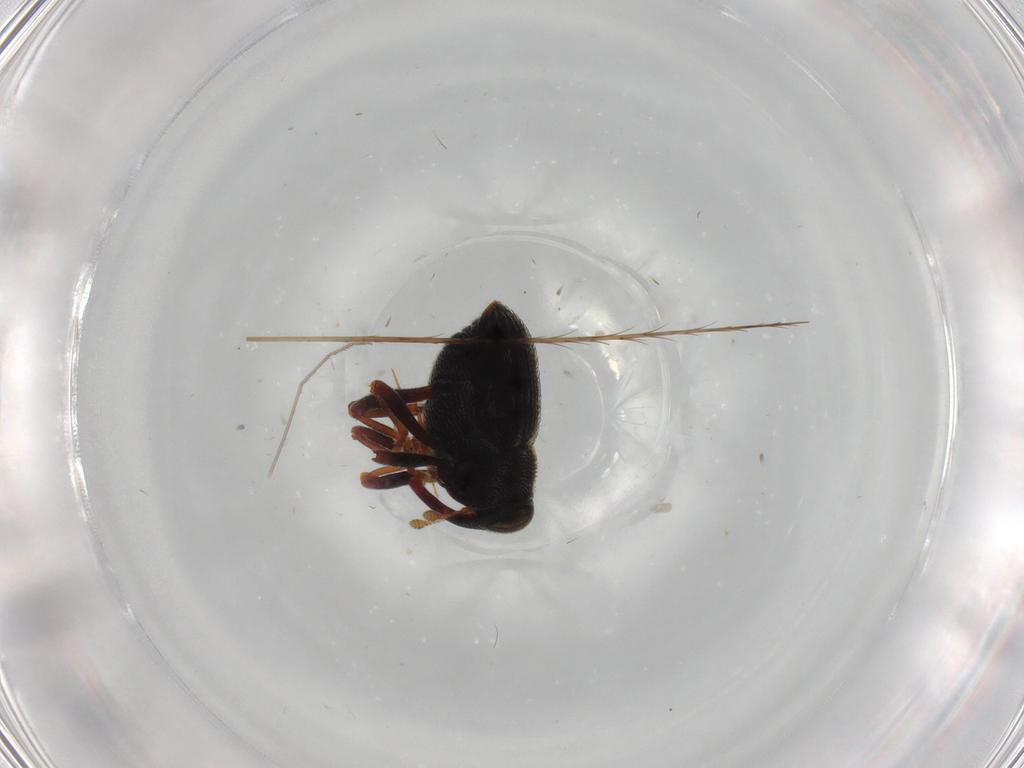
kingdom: Animalia
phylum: Arthropoda
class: Insecta
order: Coleoptera
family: Curculionidae
